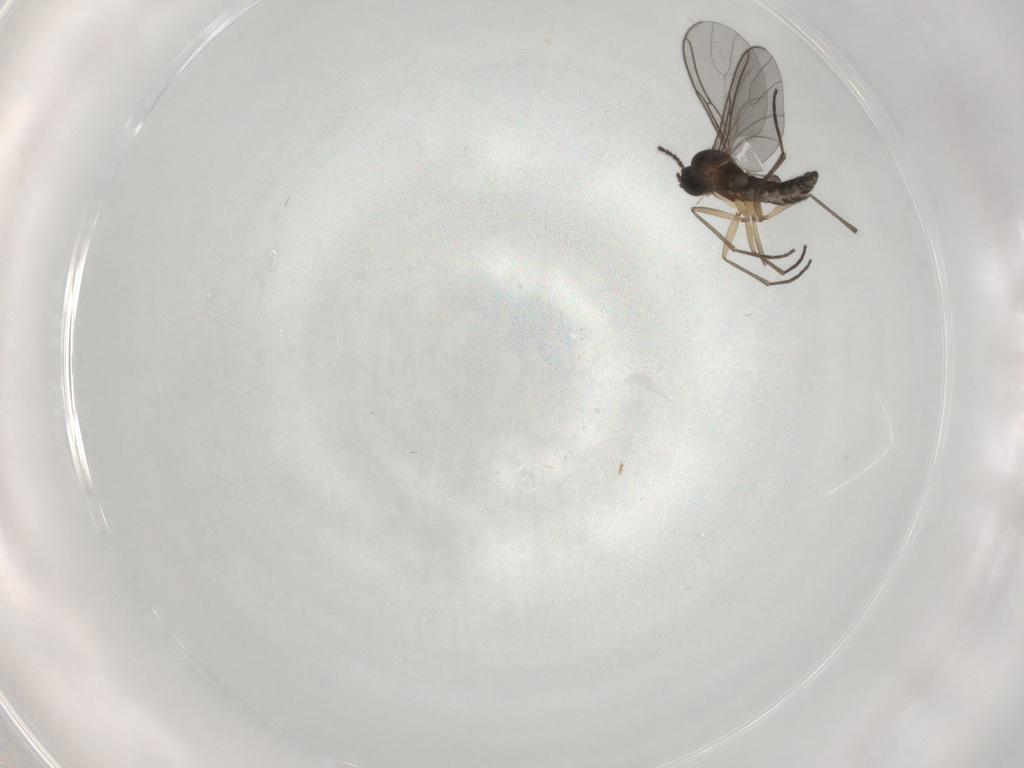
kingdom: Animalia
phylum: Arthropoda
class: Insecta
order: Diptera
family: Sciaridae
